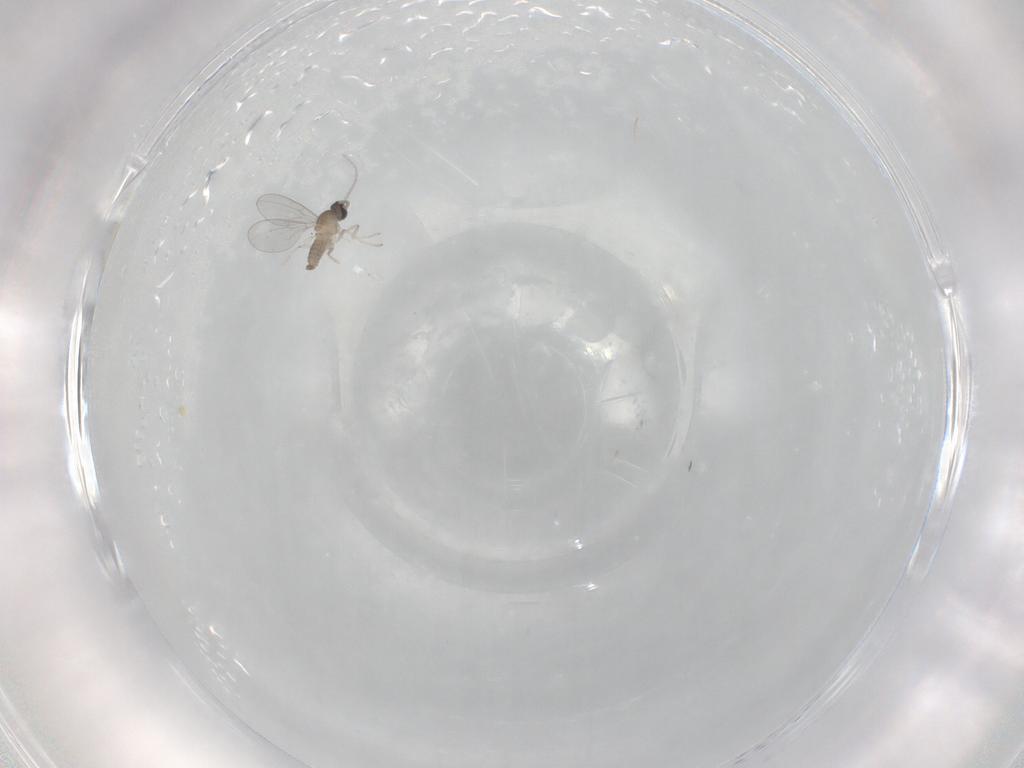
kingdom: Animalia
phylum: Arthropoda
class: Insecta
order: Diptera
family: Cecidomyiidae
